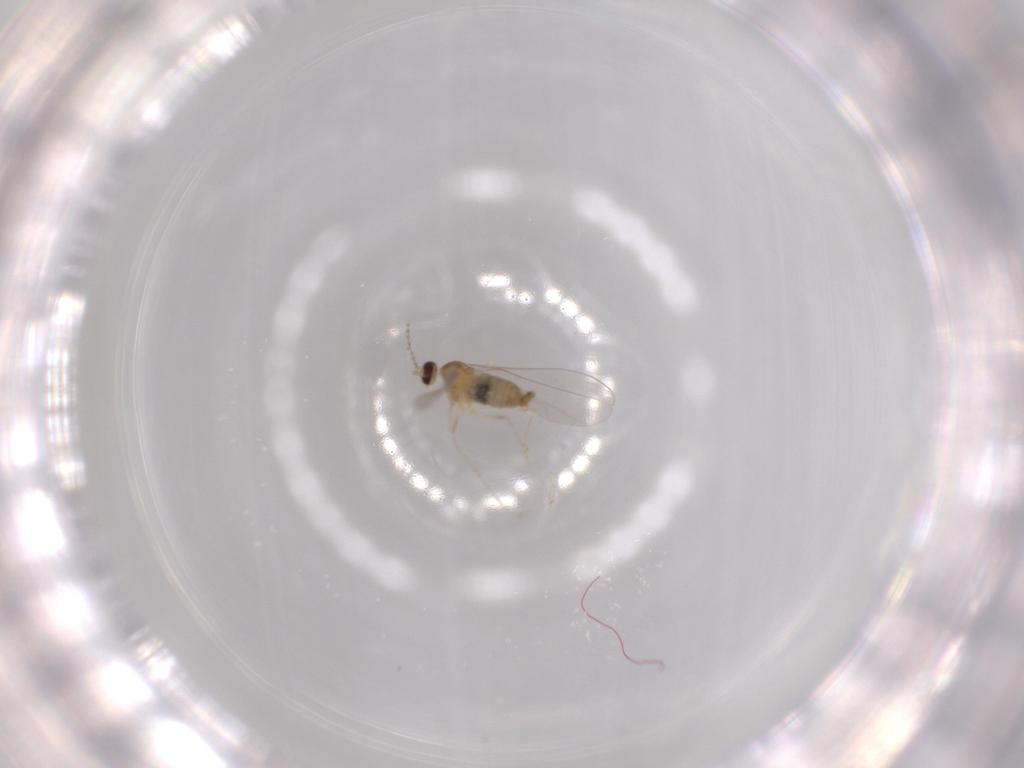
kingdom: Animalia
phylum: Arthropoda
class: Insecta
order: Diptera
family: Cecidomyiidae
